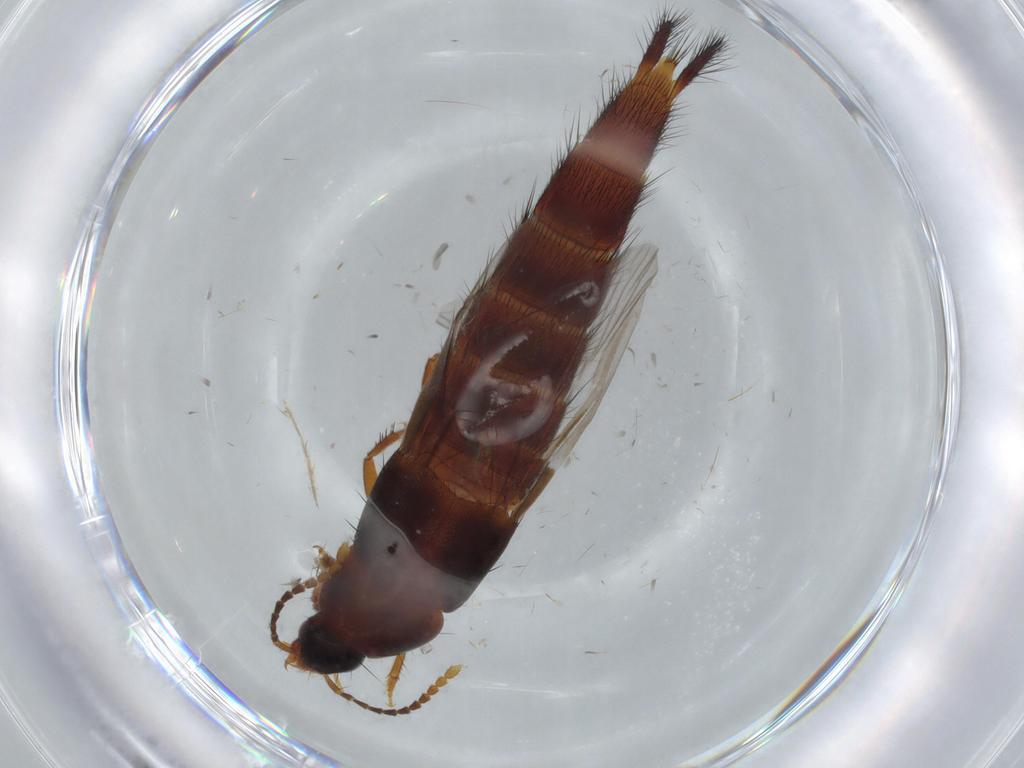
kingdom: Animalia
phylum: Arthropoda
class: Insecta
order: Coleoptera
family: Staphylinidae
